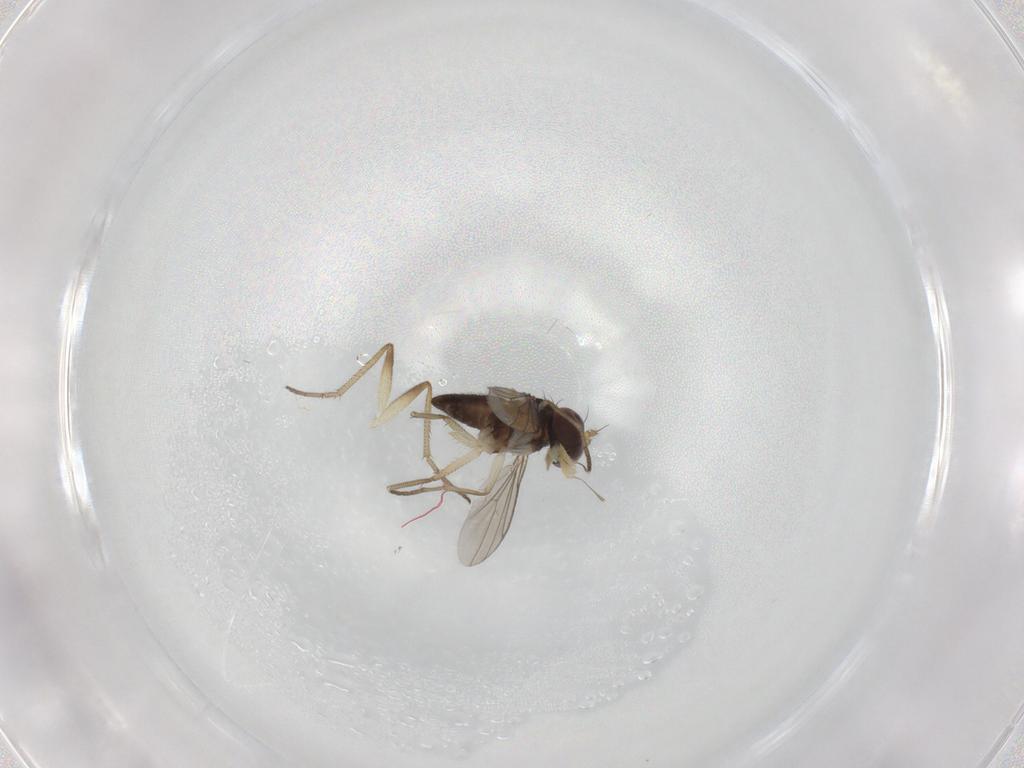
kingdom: Animalia
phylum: Arthropoda
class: Insecta
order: Diptera
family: Dolichopodidae
